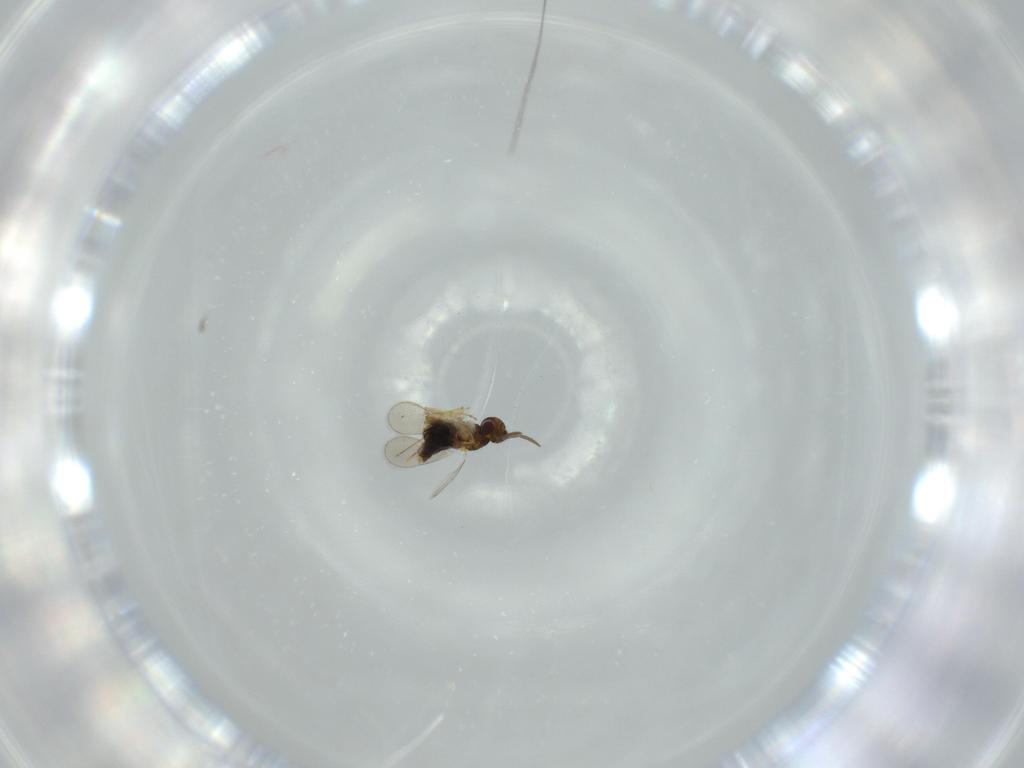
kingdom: Animalia
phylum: Arthropoda
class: Insecta
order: Hymenoptera
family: Aphelinidae
